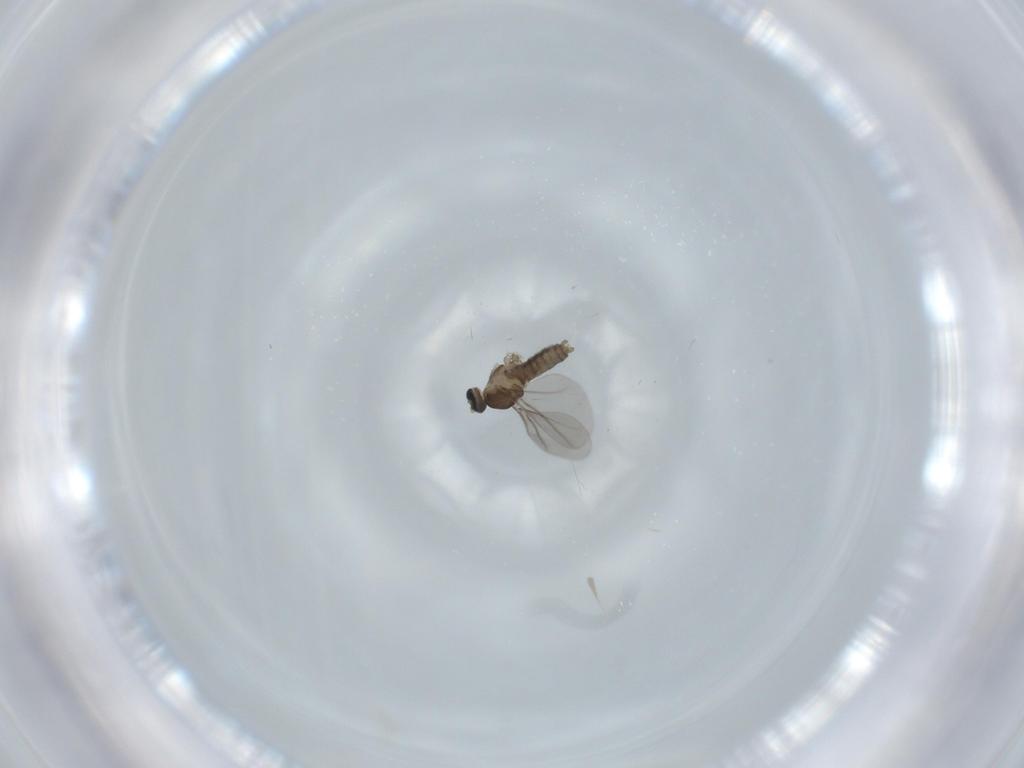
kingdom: Animalia
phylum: Arthropoda
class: Insecta
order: Diptera
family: Cecidomyiidae
